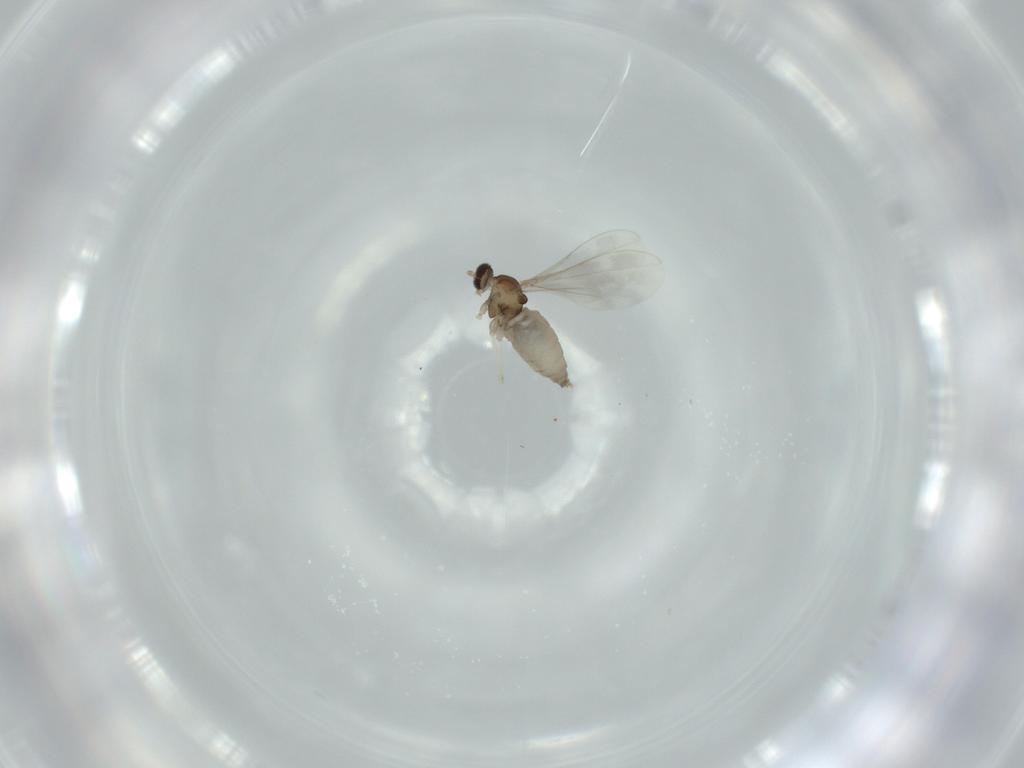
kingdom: Animalia
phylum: Arthropoda
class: Insecta
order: Diptera
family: Cecidomyiidae
